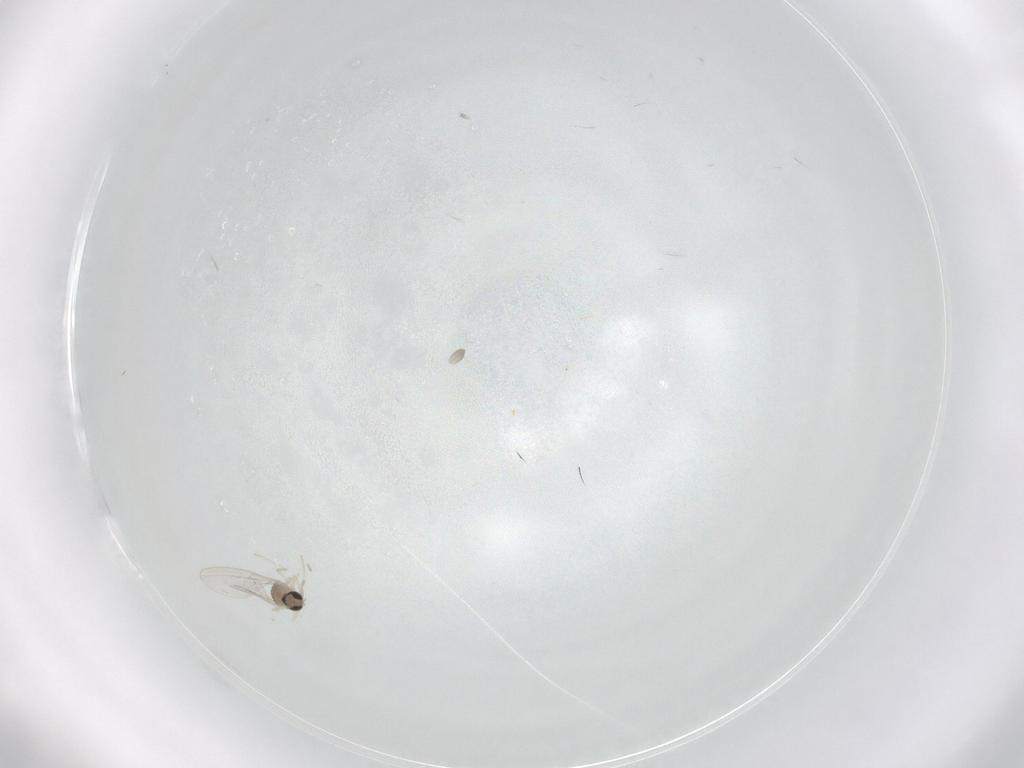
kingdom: Animalia
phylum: Arthropoda
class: Insecta
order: Diptera
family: Cecidomyiidae
